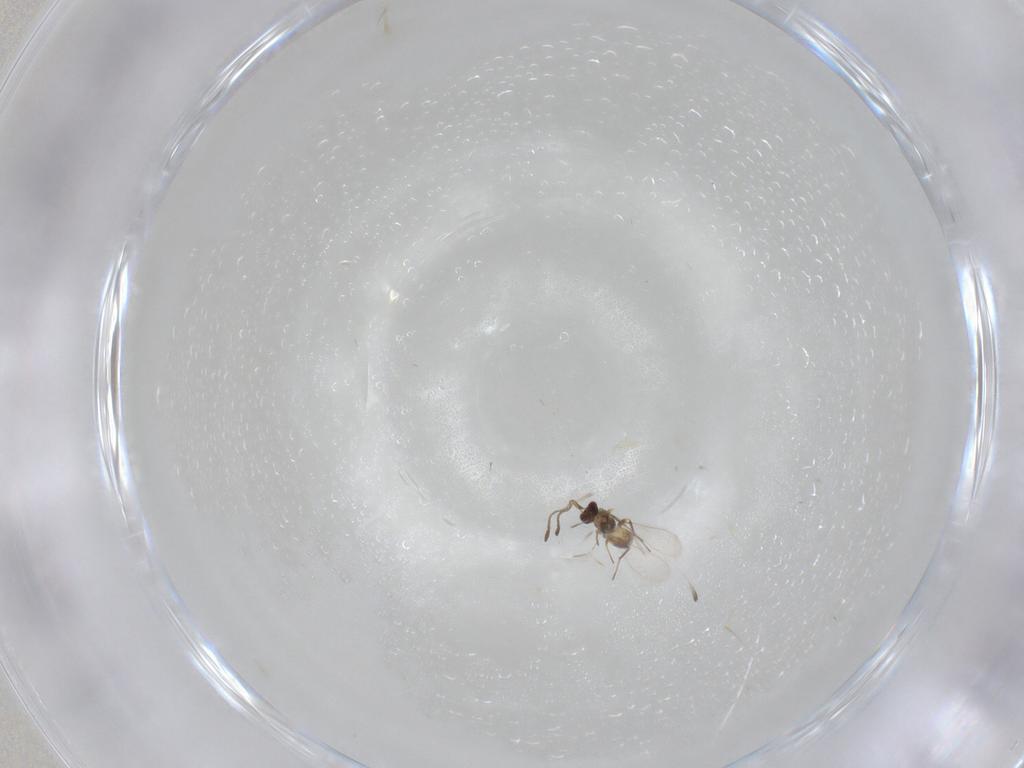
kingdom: Animalia
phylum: Arthropoda
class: Insecta
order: Hymenoptera
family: Mymaridae
